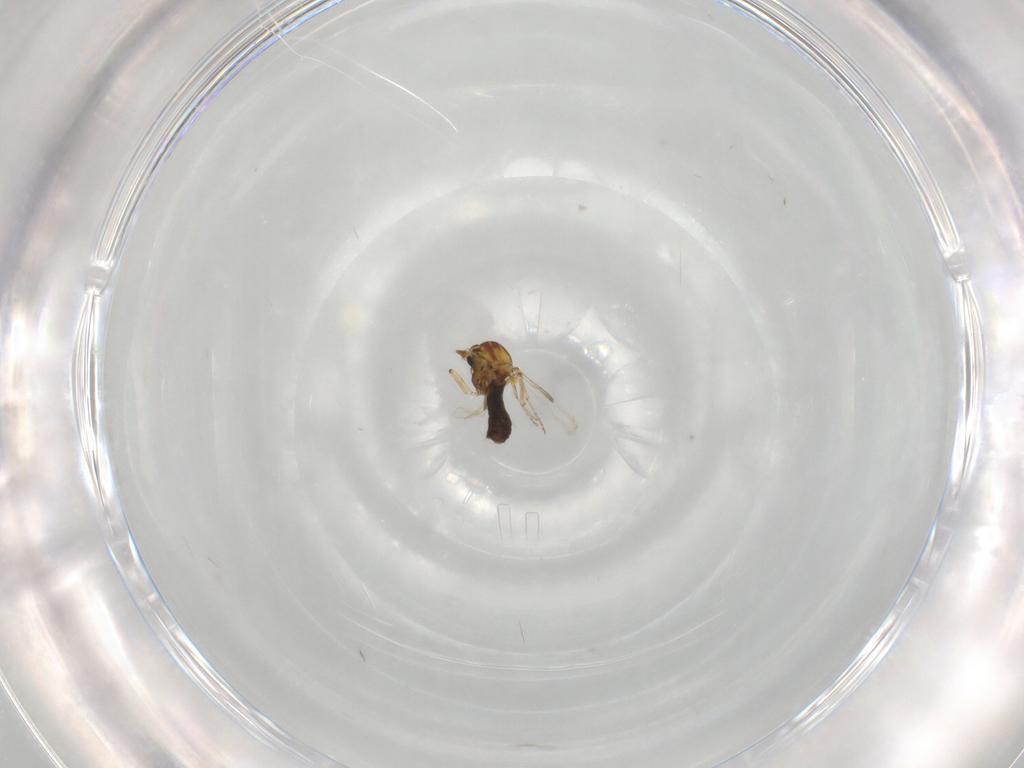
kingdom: Animalia
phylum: Arthropoda
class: Insecta
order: Diptera
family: Ceratopogonidae
